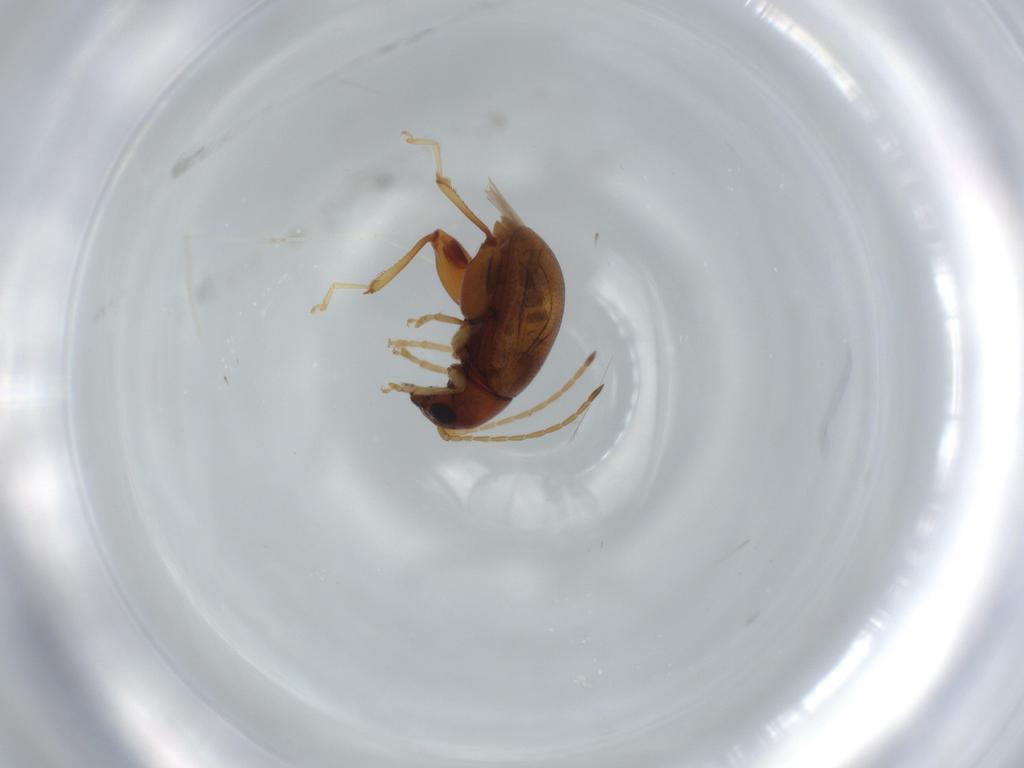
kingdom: Animalia
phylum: Arthropoda
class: Insecta
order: Coleoptera
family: Chrysomelidae
